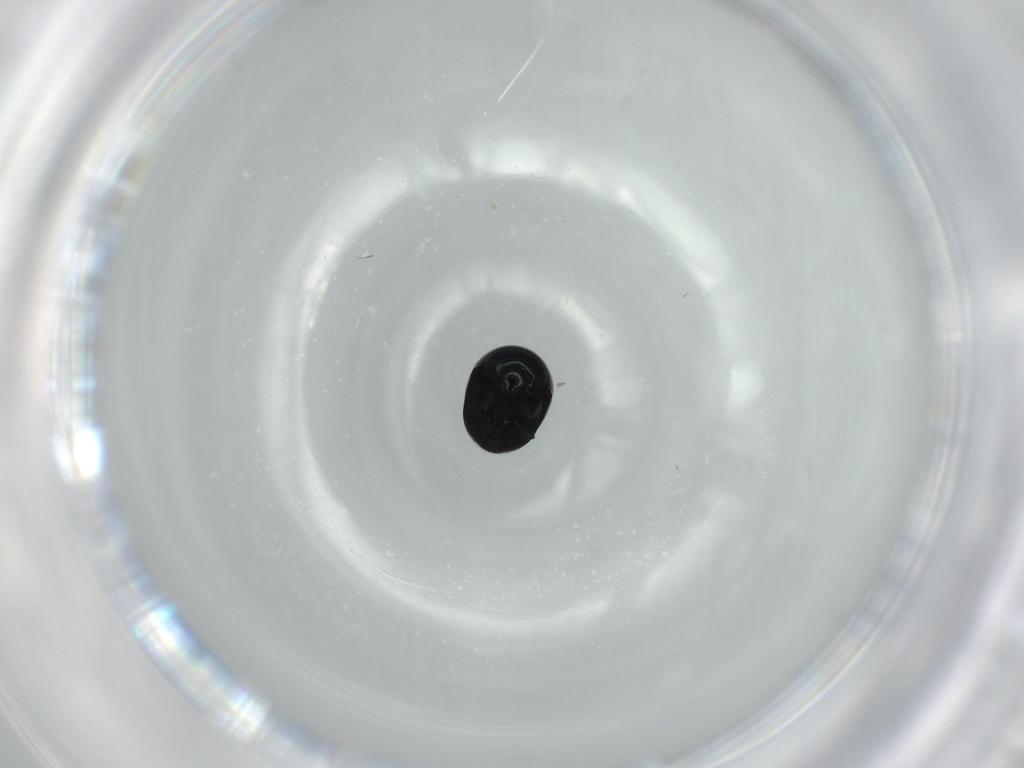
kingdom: Animalia
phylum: Arthropoda
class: Insecta
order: Coleoptera
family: Cybocephalidae
